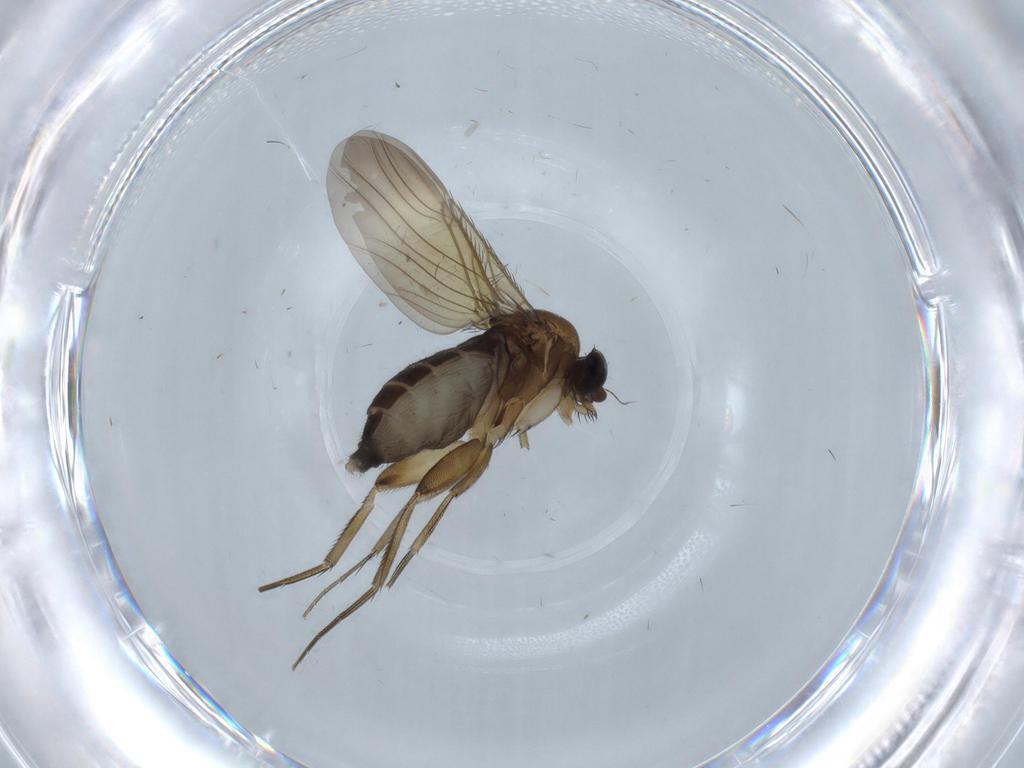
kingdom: Animalia
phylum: Arthropoda
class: Insecta
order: Diptera
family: Phoridae
